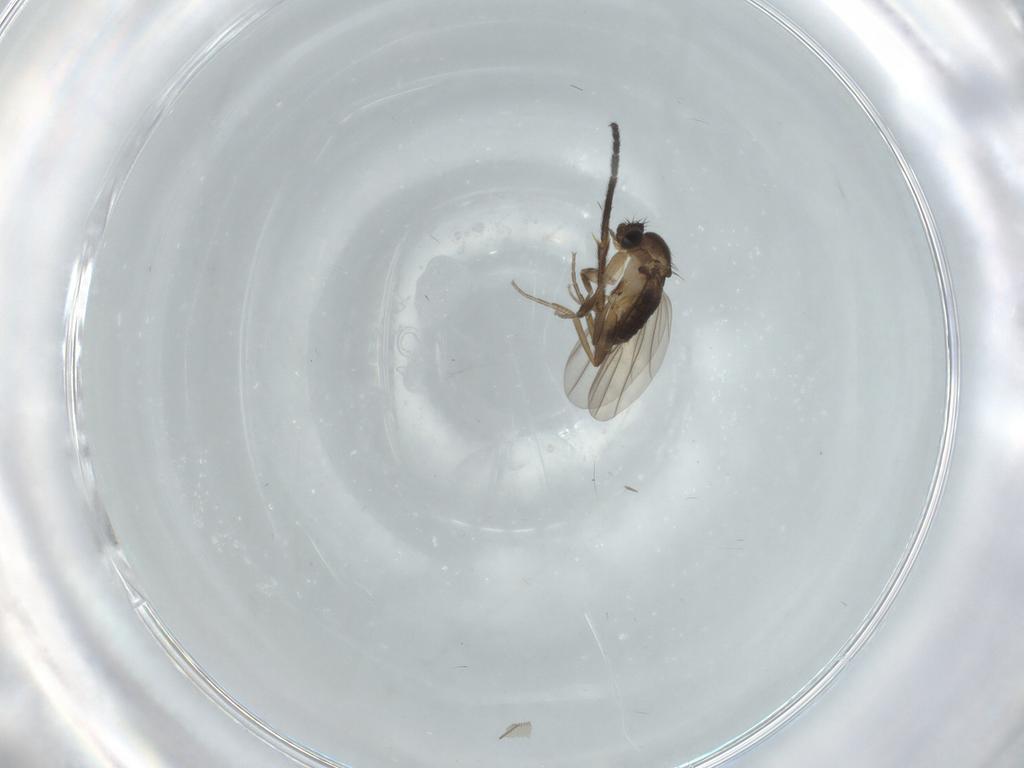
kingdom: Animalia
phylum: Arthropoda
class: Insecta
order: Diptera
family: Phoridae
